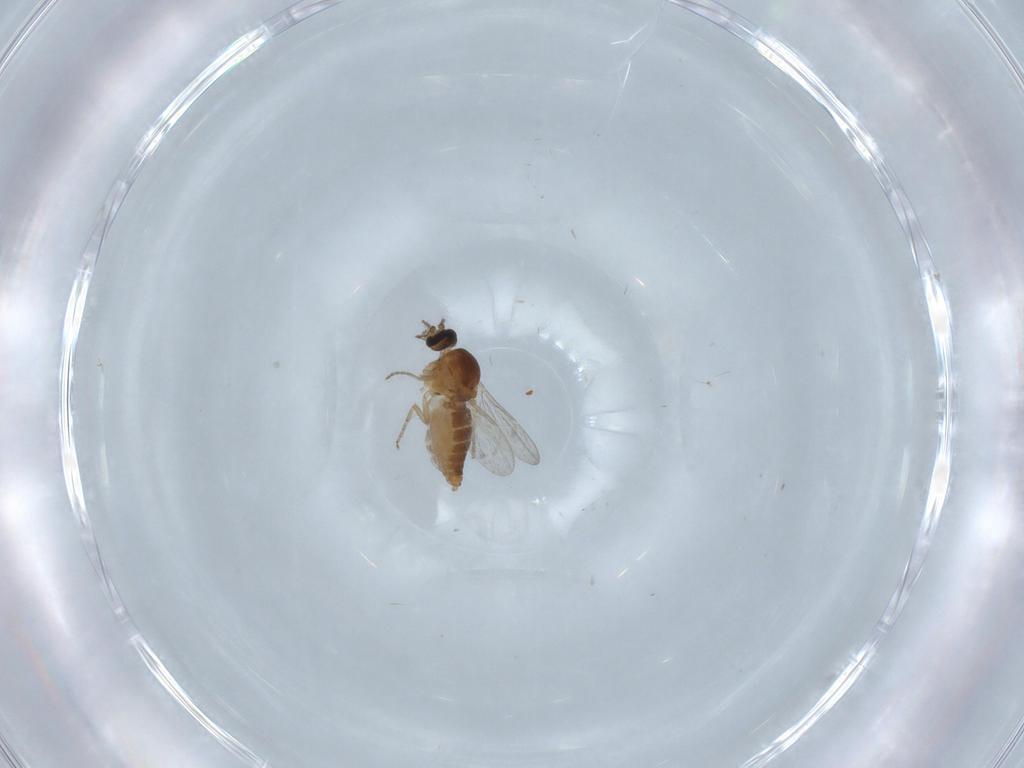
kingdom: Animalia
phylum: Arthropoda
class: Insecta
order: Diptera
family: Ceratopogonidae
